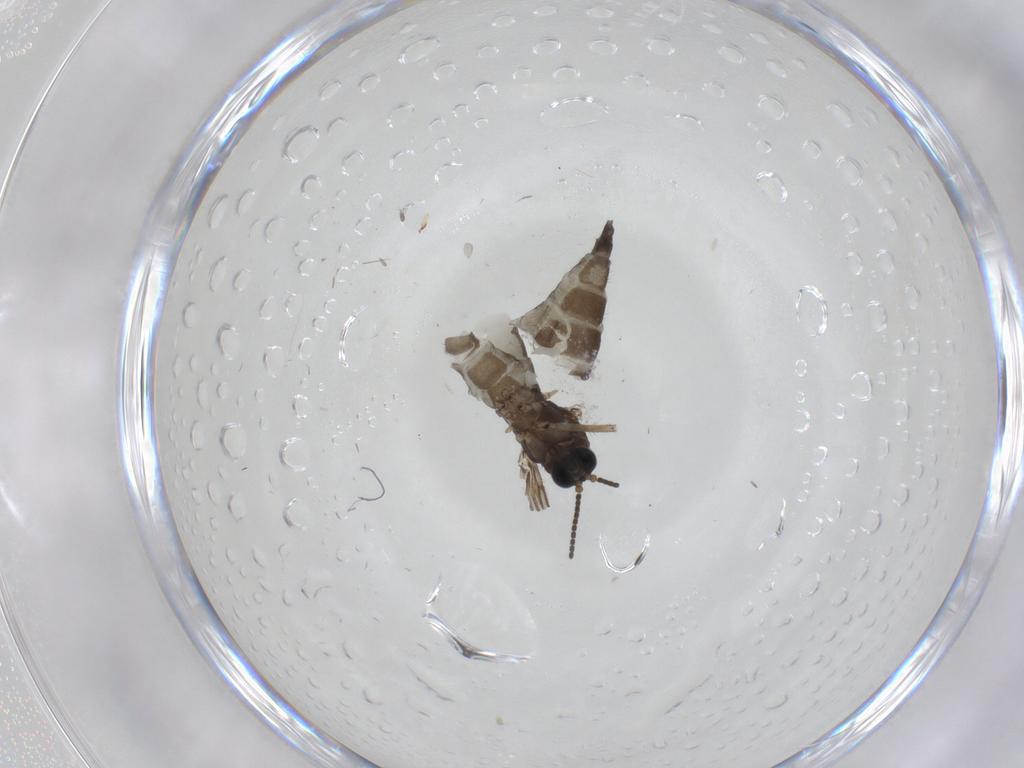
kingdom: Animalia
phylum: Arthropoda
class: Insecta
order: Diptera
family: Sciaridae
